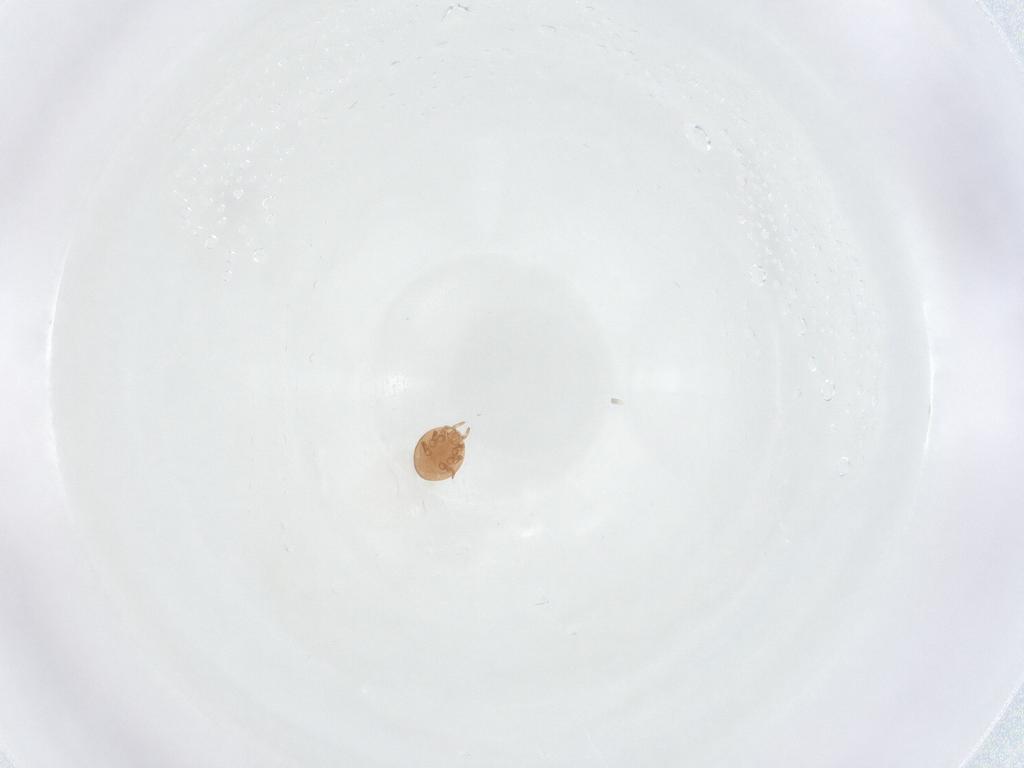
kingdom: Animalia
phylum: Arthropoda
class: Arachnida
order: Mesostigmata
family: Trematuridae
